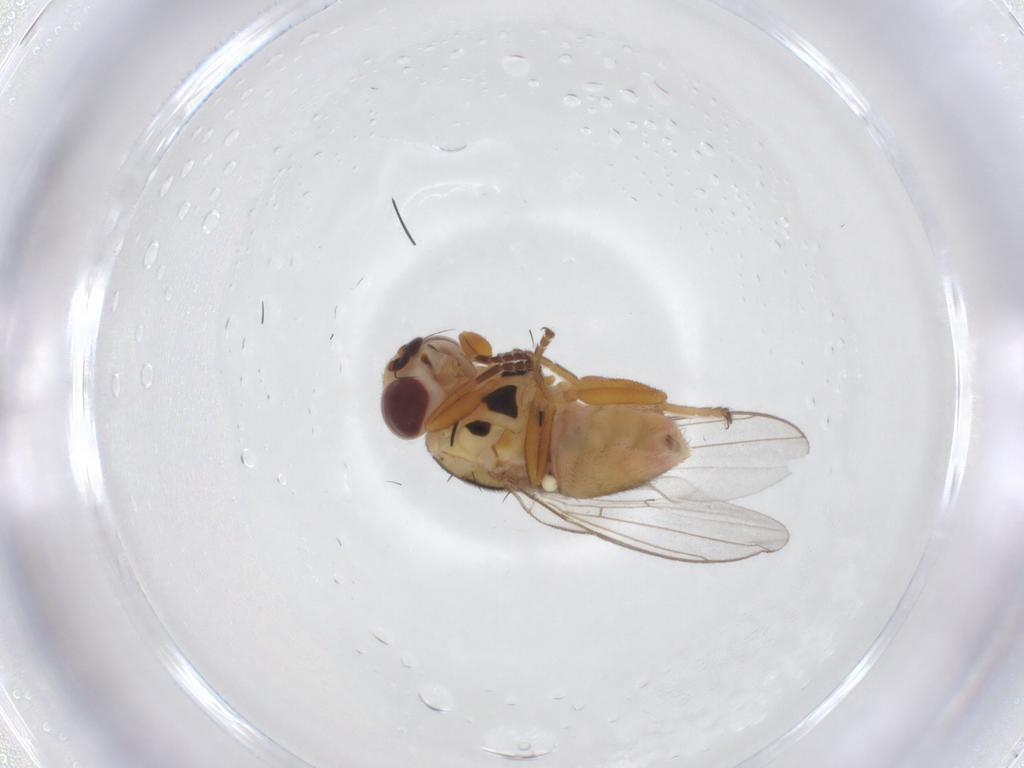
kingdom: Animalia
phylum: Arthropoda
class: Insecta
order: Diptera
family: Chloropidae
